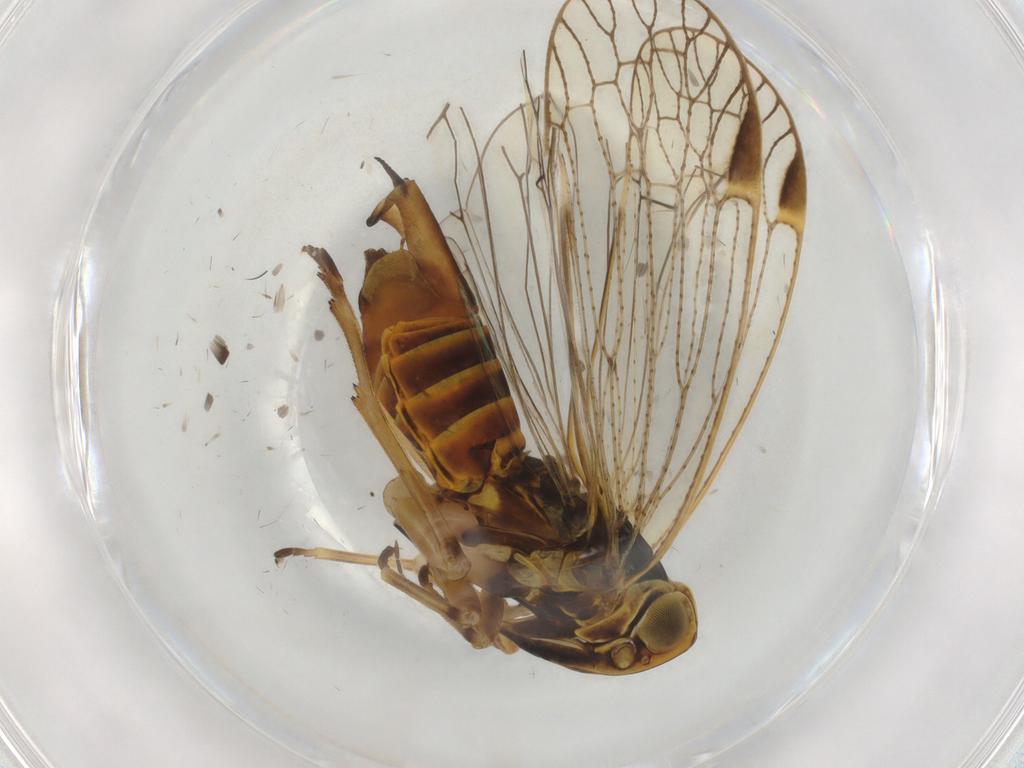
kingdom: Animalia
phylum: Arthropoda
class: Insecta
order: Hemiptera
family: Cixiidae
